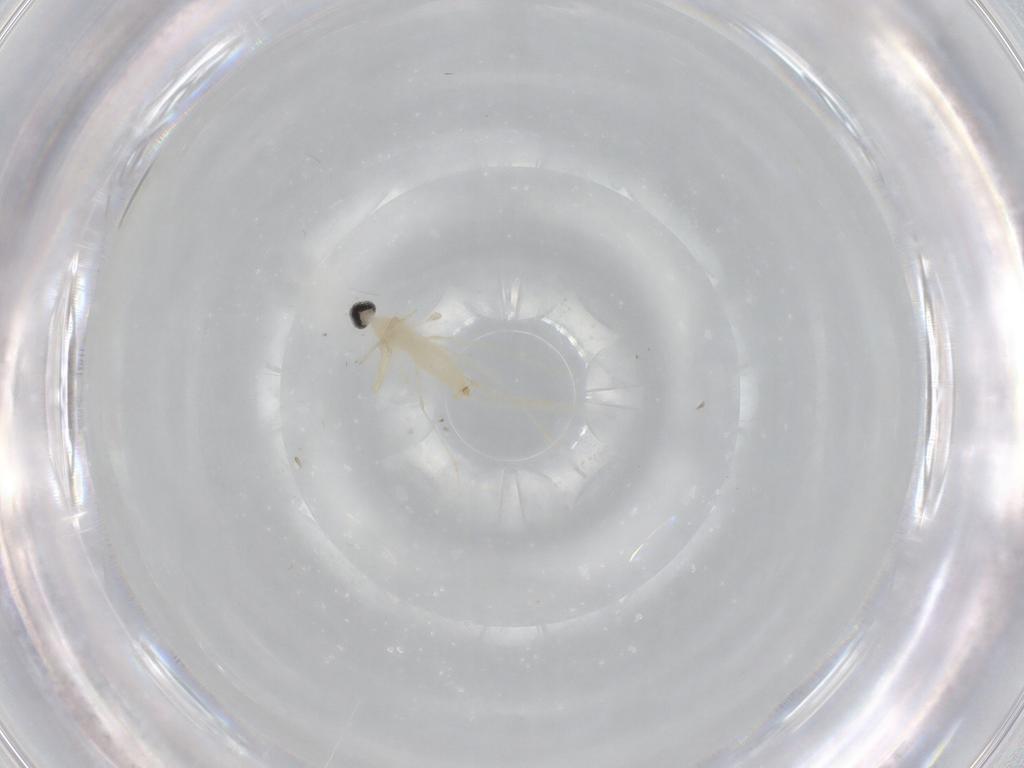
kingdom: Animalia
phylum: Arthropoda
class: Insecta
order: Diptera
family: Cecidomyiidae
